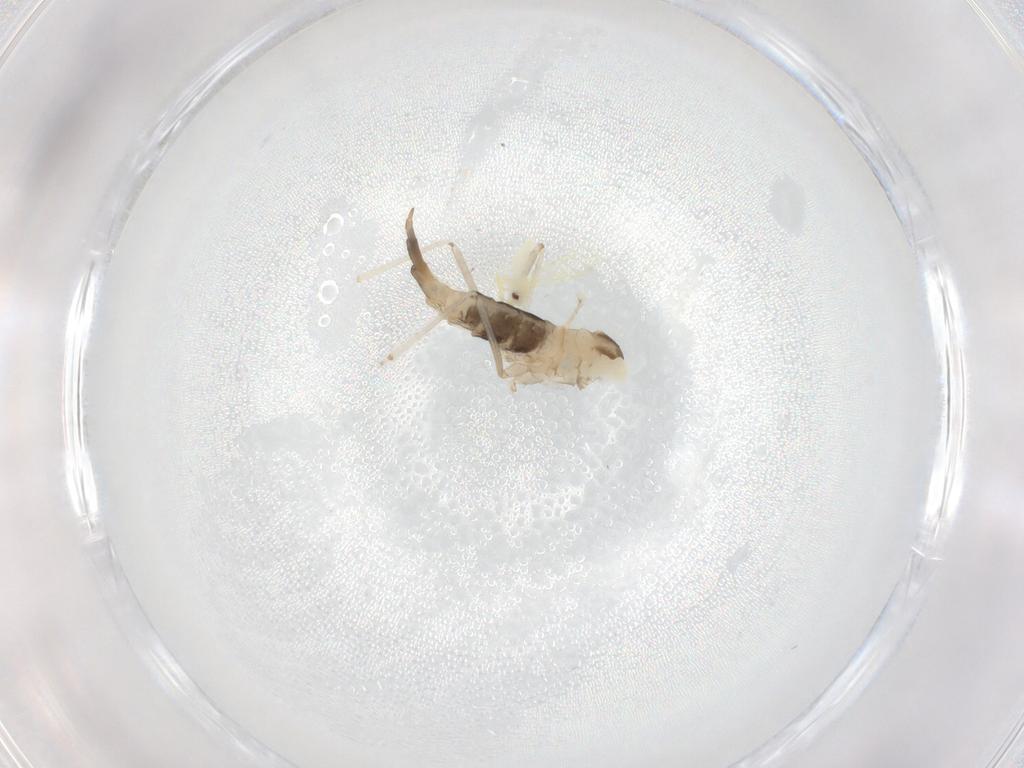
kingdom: Animalia
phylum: Arthropoda
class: Insecta
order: Diptera
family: Cecidomyiidae
